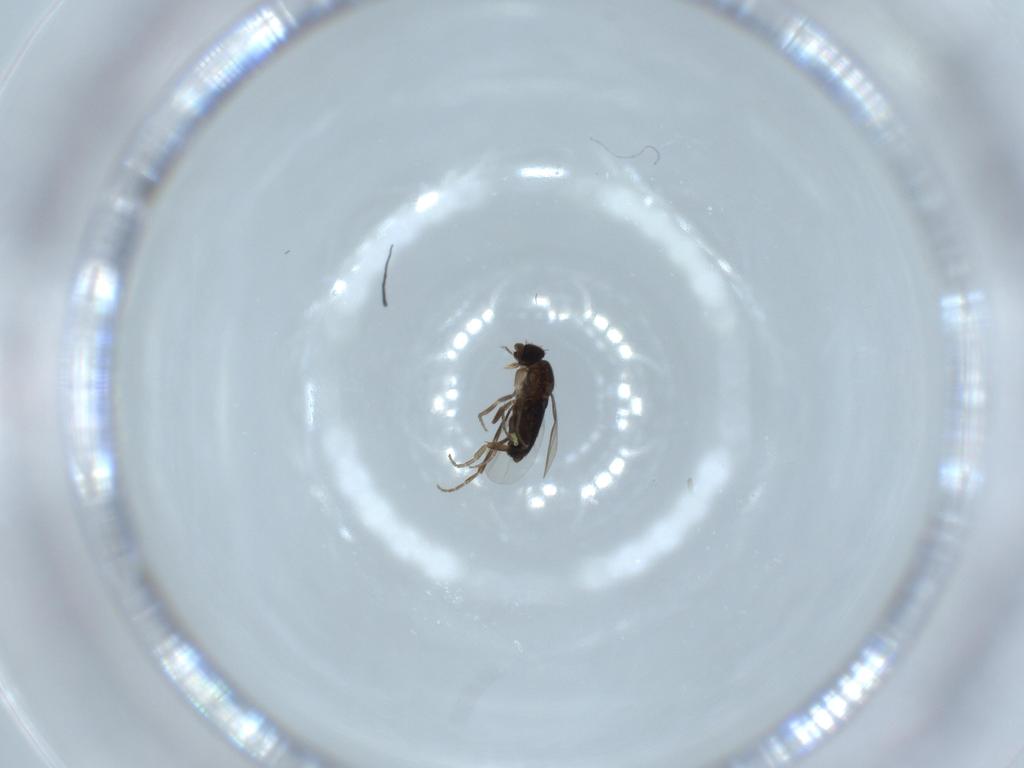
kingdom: Animalia
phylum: Arthropoda
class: Insecta
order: Diptera
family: Phoridae
